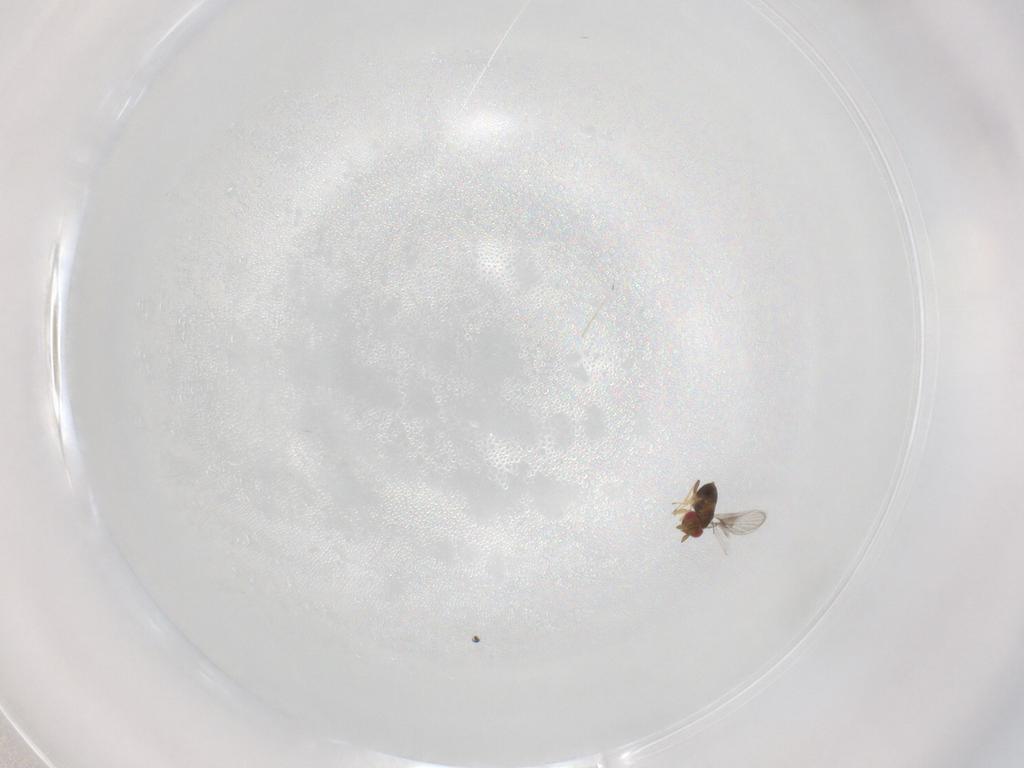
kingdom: Animalia
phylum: Arthropoda
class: Insecta
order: Hymenoptera
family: Trichogrammatidae
